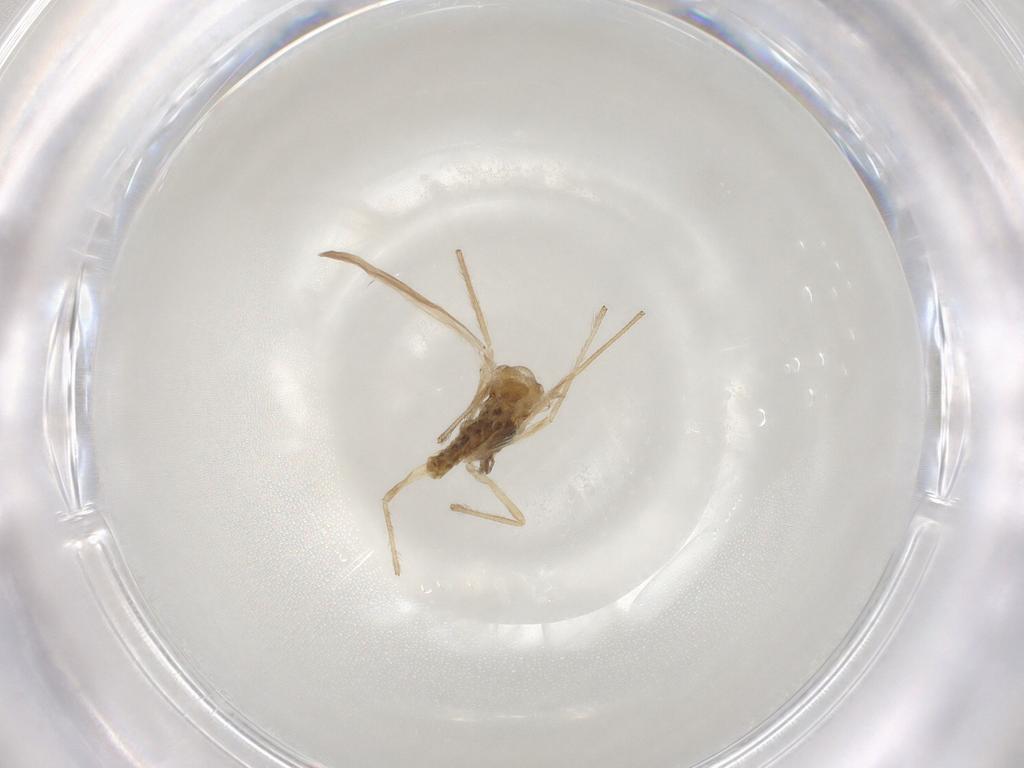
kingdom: Animalia
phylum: Arthropoda
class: Insecta
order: Diptera
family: Chironomidae
